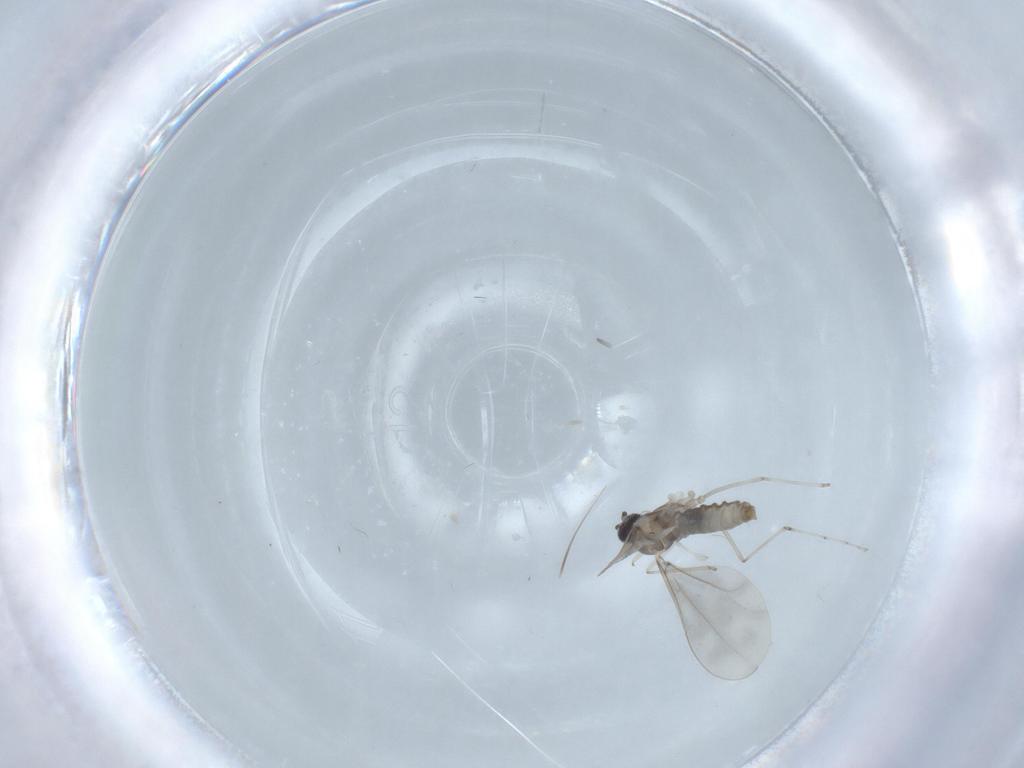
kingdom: Animalia
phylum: Arthropoda
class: Insecta
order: Diptera
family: Cecidomyiidae
